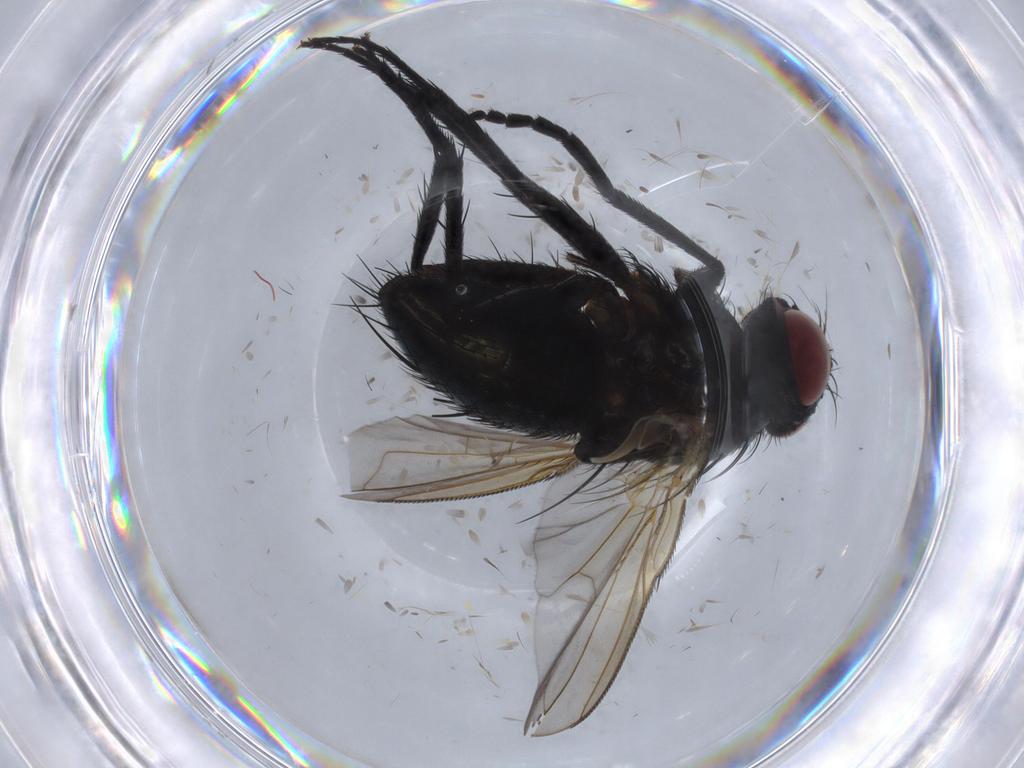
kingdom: Animalia
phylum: Arthropoda
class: Insecta
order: Diptera
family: Tachinidae
